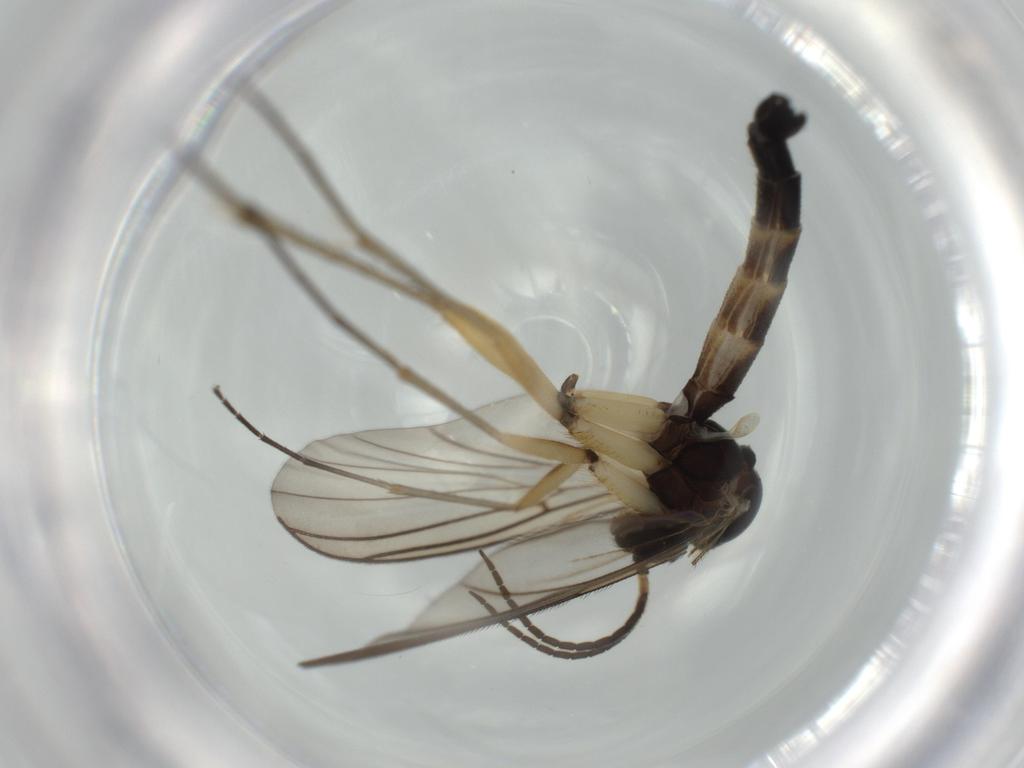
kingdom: Animalia
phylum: Arthropoda
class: Insecta
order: Diptera
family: Mycetophilidae
